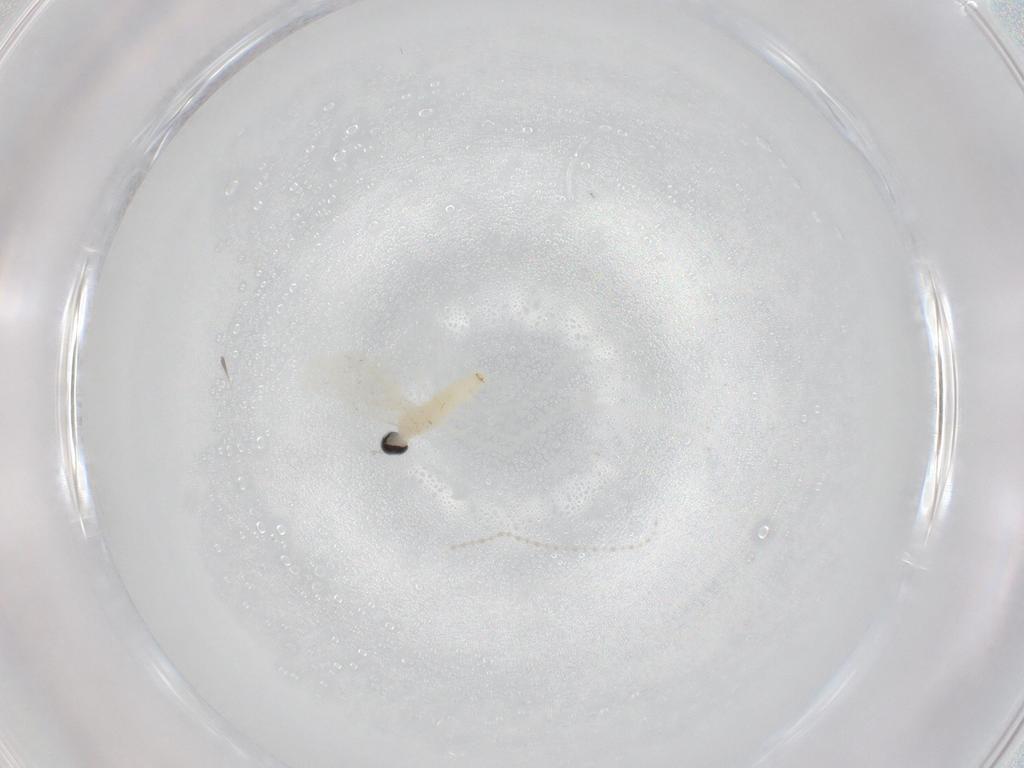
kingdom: Animalia
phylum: Arthropoda
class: Insecta
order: Diptera
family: Cecidomyiidae
